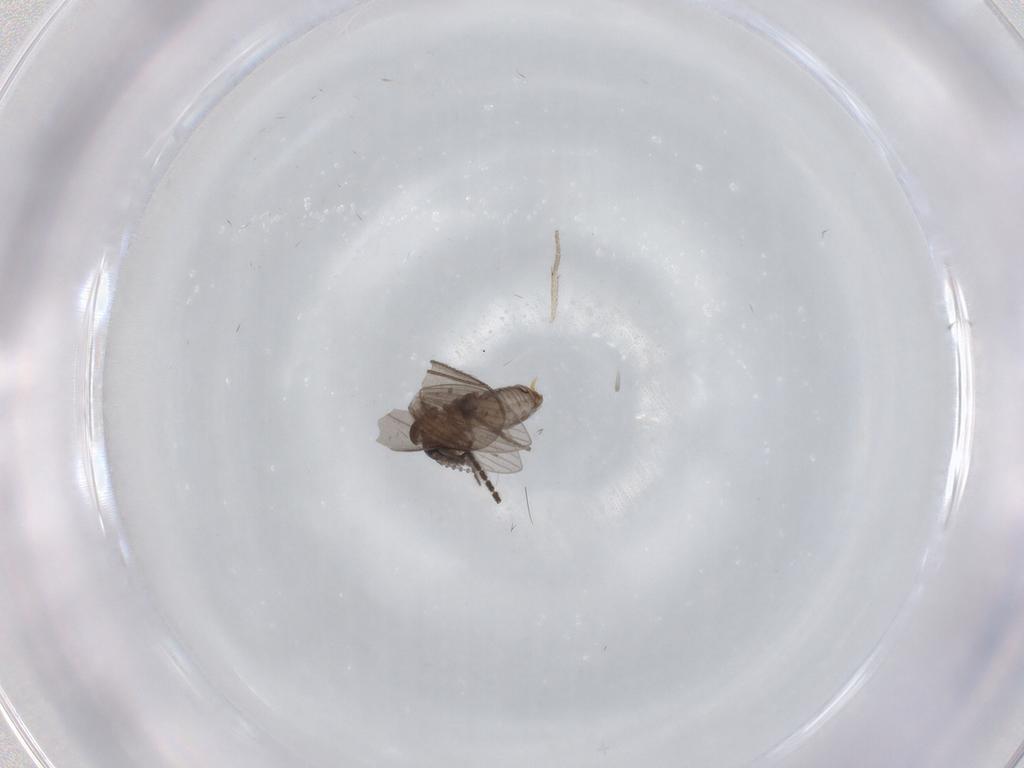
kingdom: Animalia
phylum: Arthropoda
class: Insecta
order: Diptera
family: Psychodidae
